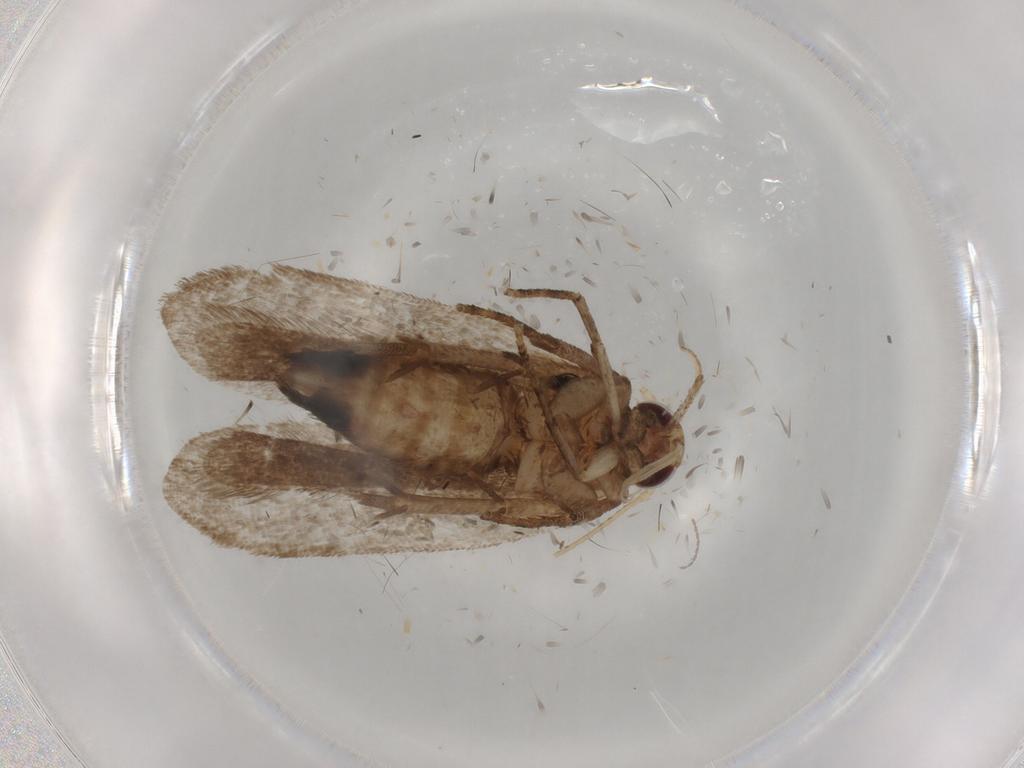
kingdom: Animalia
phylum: Arthropoda
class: Insecta
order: Lepidoptera
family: Gelechiidae
